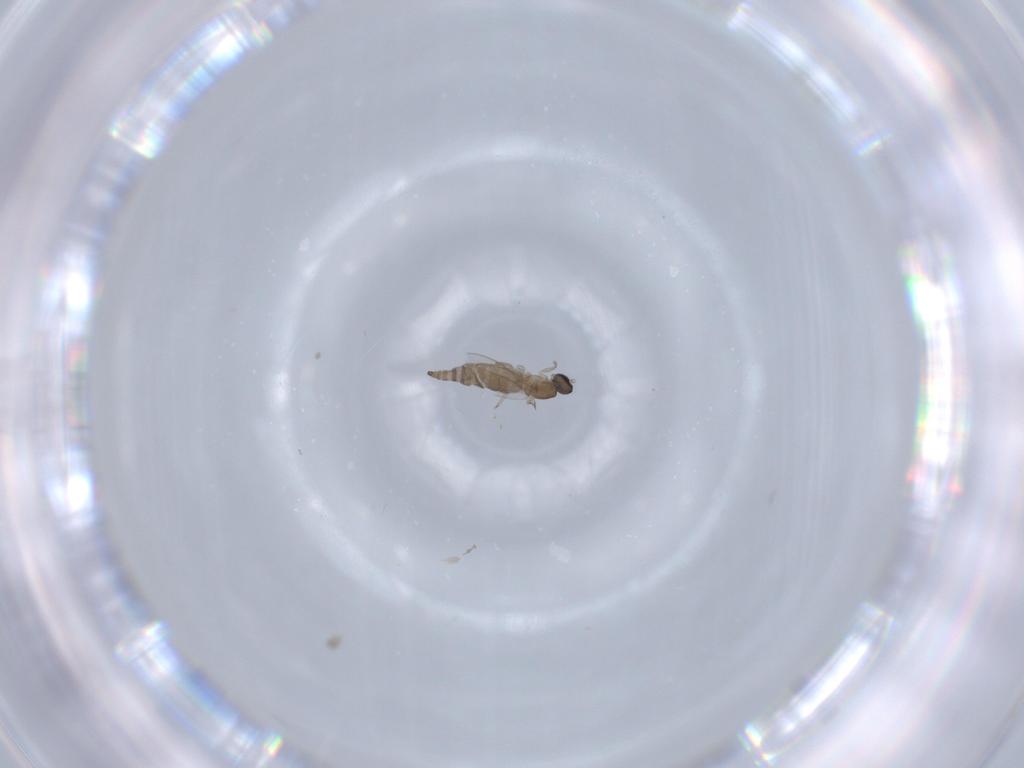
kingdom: Animalia
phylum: Arthropoda
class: Insecta
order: Diptera
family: Cecidomyiidae
